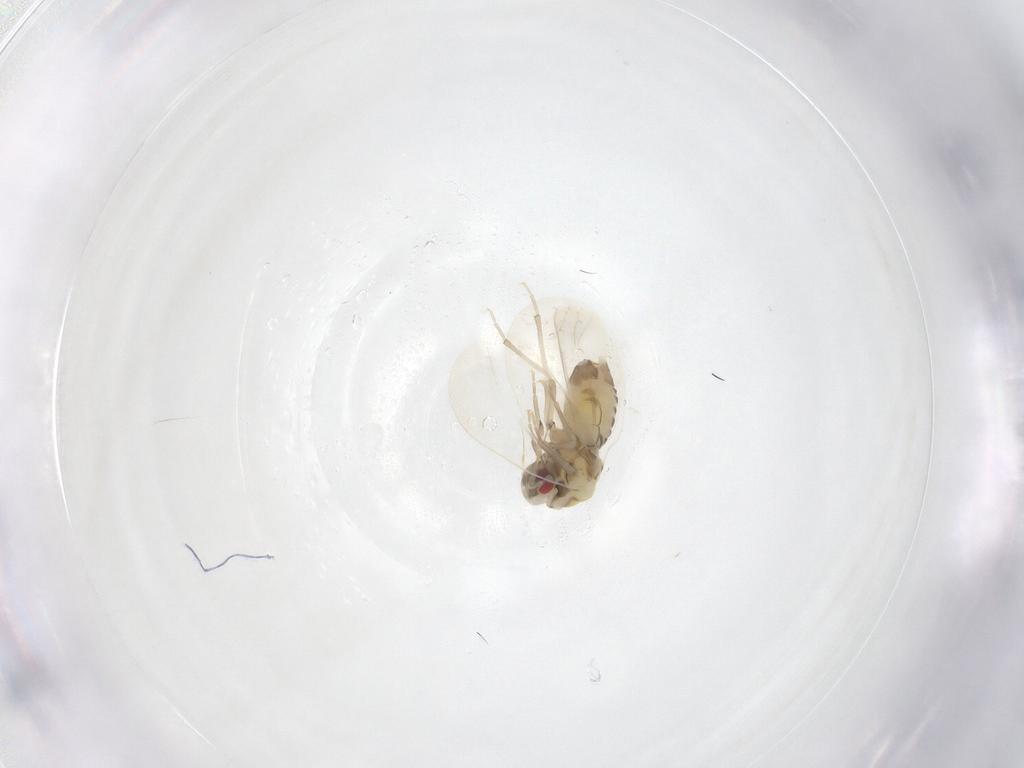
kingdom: Animalia
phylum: Arthropoda
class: Insecta
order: Hemiptera
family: Aleyrodidae
